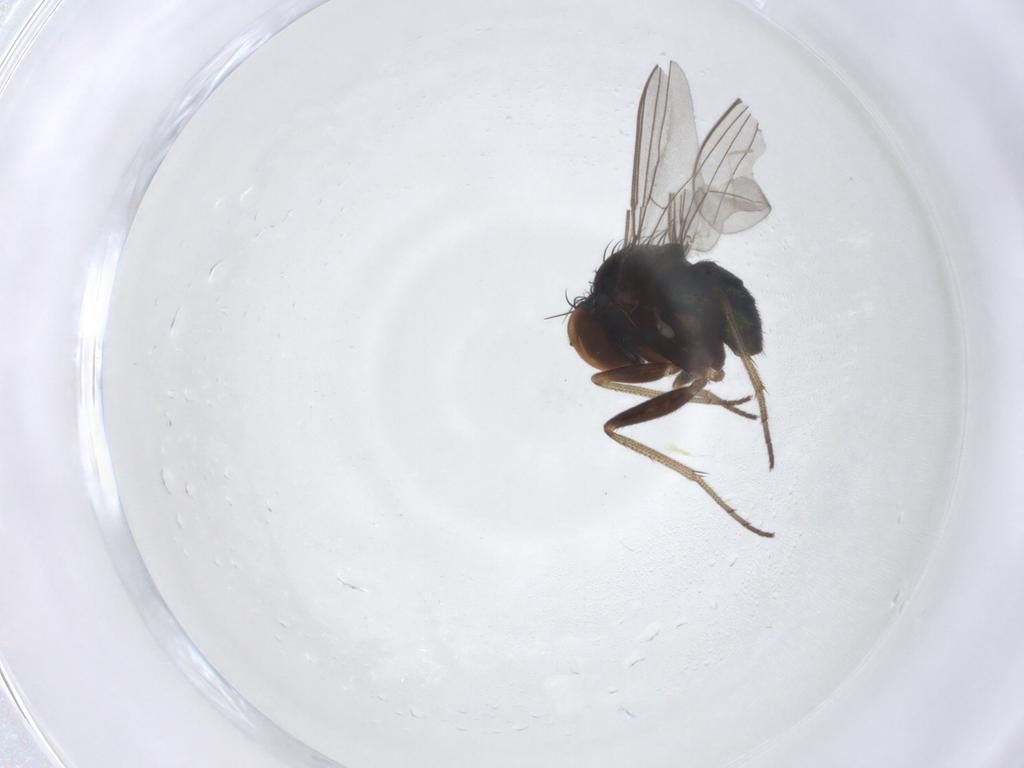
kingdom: Animalia
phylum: Arthropoda
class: Insecta
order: Diptera
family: Dolichopodidae
